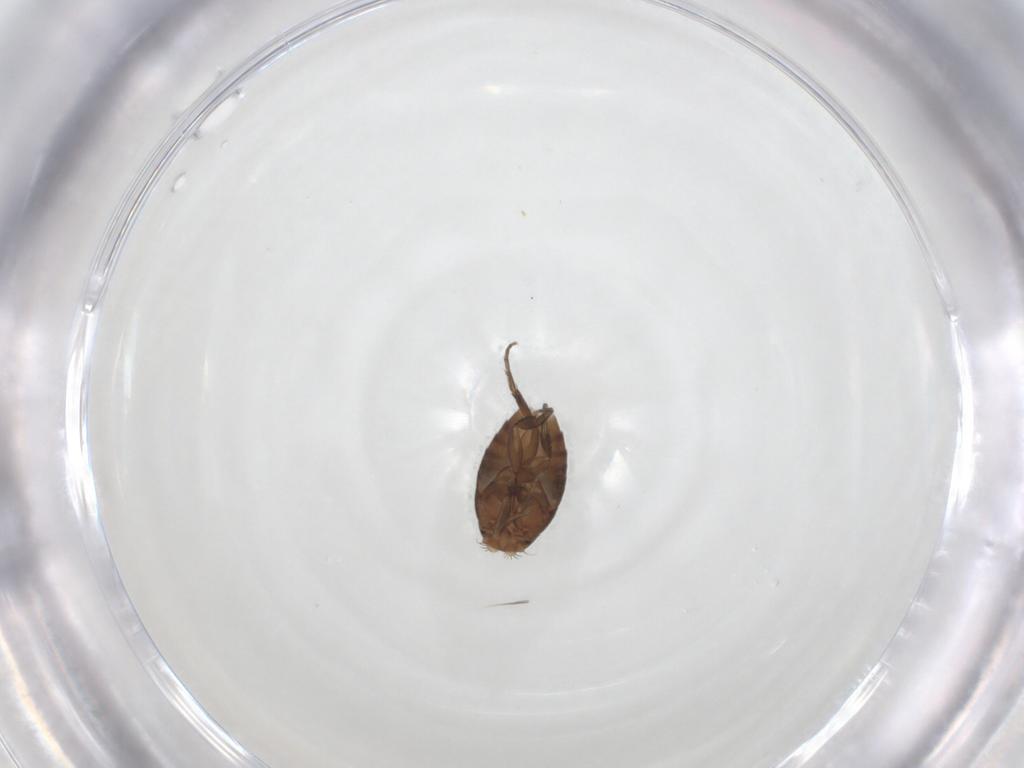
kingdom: Animalia
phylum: Arthropoda
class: Insecta
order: Diptera
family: Phoridae
